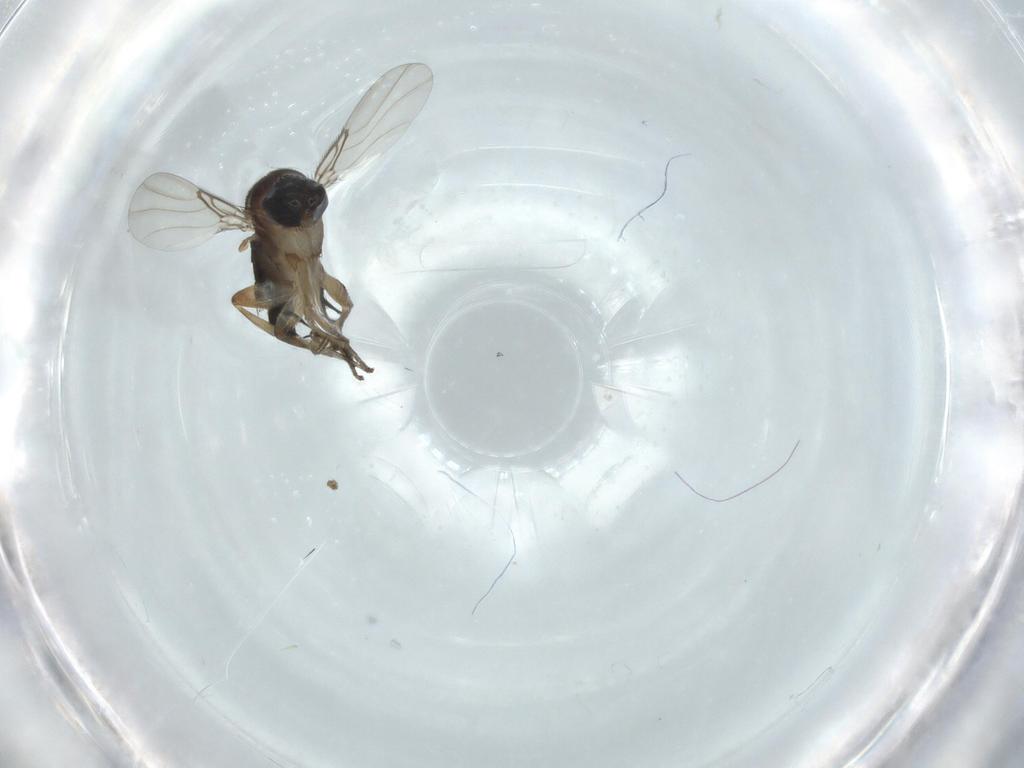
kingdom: Animalia
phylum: Arthropoda
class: Insecta
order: Diptera
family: Phoridae
